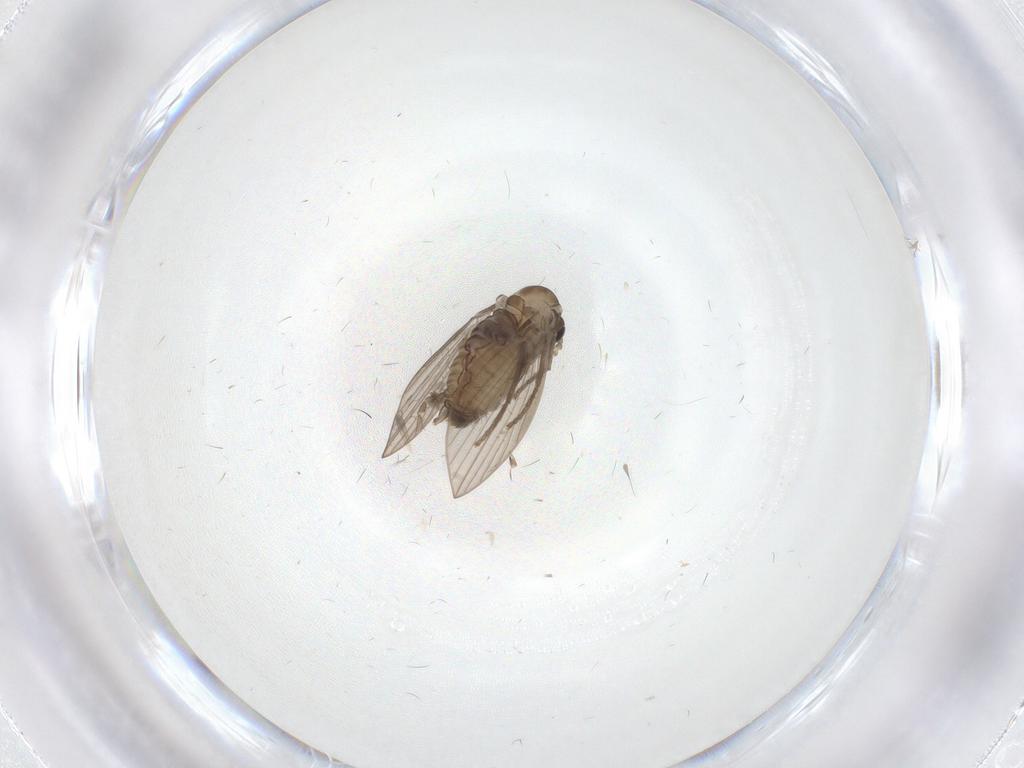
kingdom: Animalia
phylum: Arthropoda
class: Insecta
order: Diptera
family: Psychodidae
